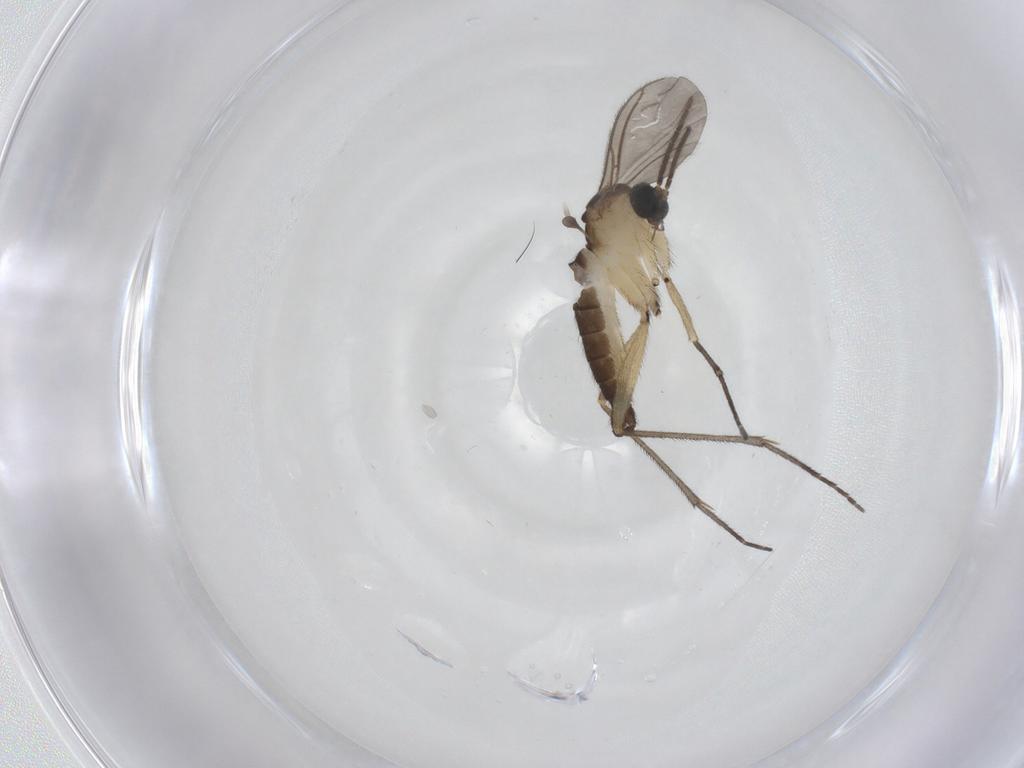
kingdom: Animalia
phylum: Arthropoda
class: Insecta
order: Diptera
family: Sciaridae
